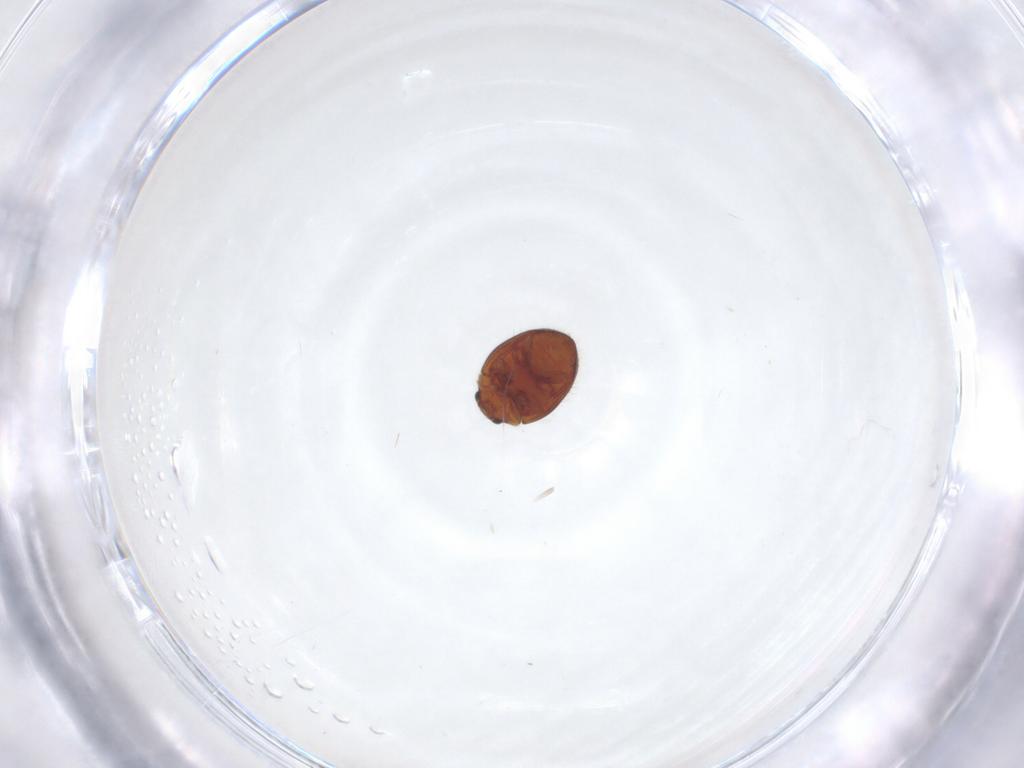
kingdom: Animalia
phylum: Arthropoda
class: Insecta
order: Coleoptera
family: Coccinellidae
